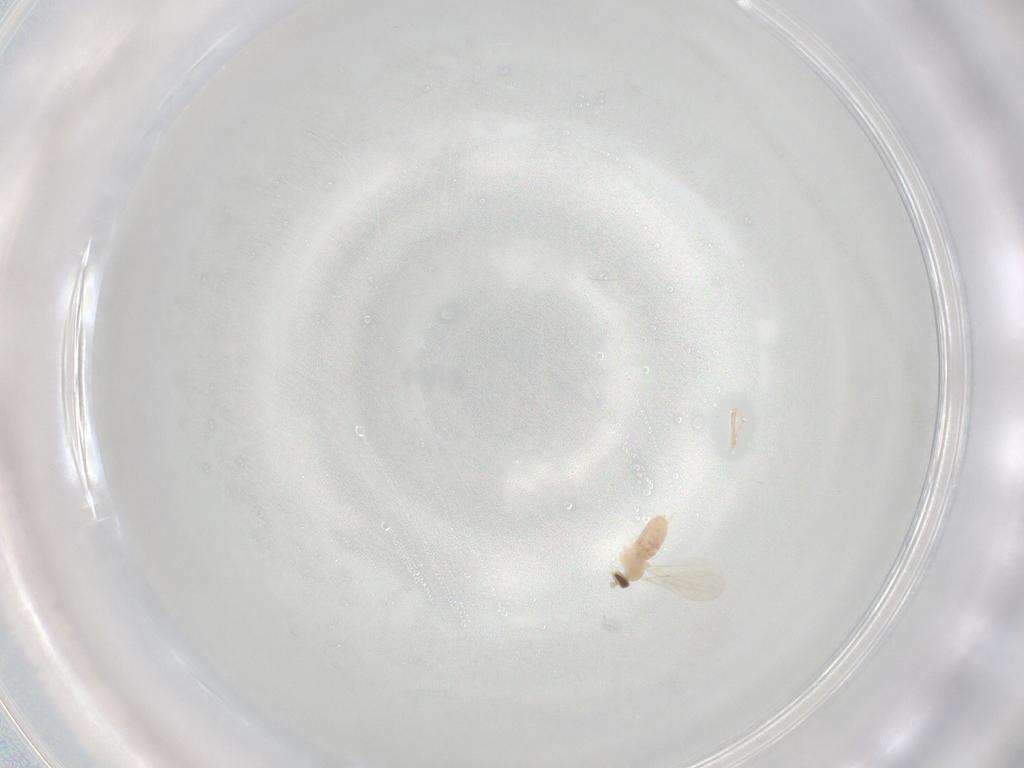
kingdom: Animalia
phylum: Arthropoda
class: Insecta
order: Diptera
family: Cecidomyiidae
